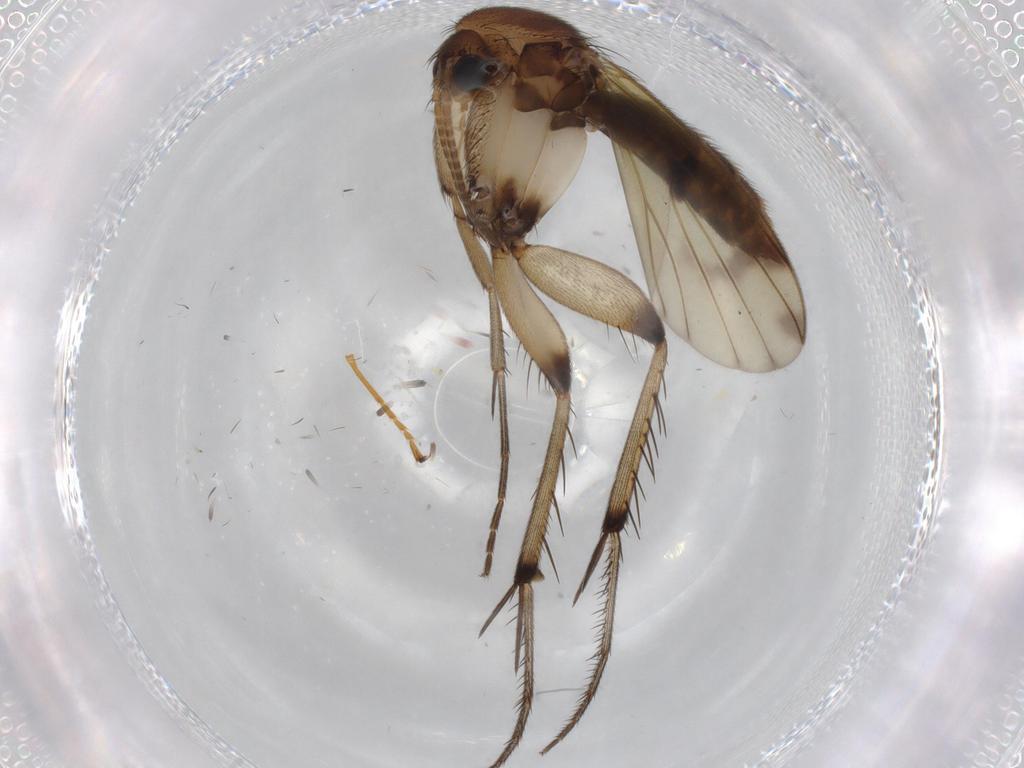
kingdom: Animalia
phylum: Arthropoda
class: Insecta
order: Diptera
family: Mycetophilidae
